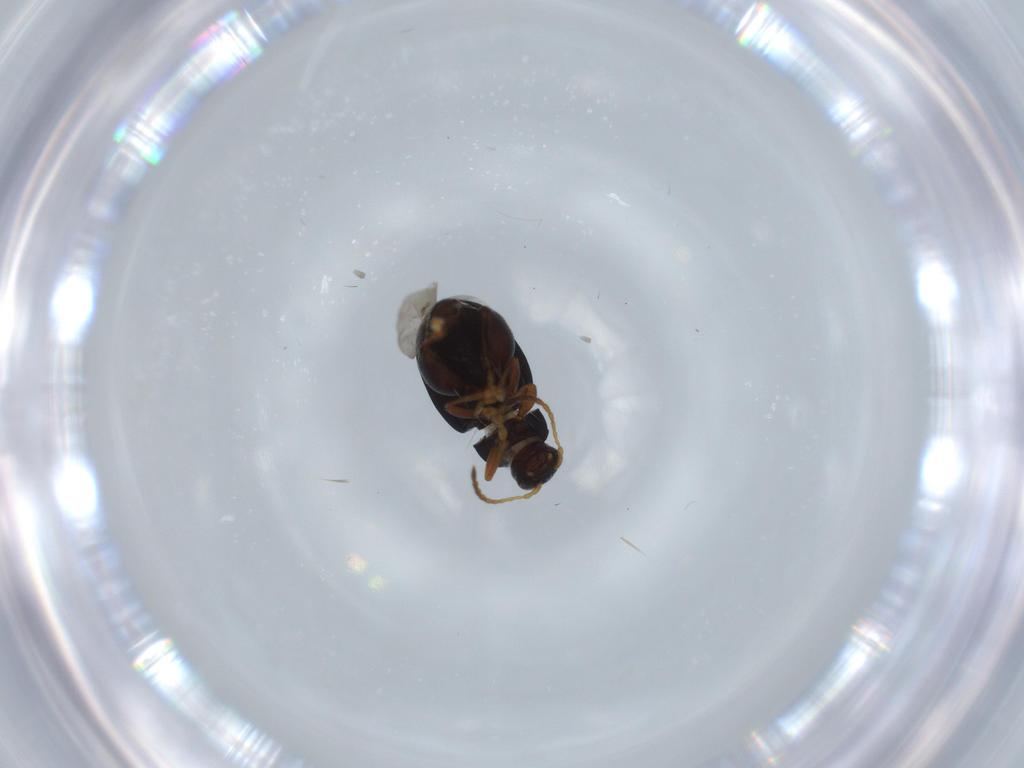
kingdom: Animalia
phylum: Arthropoda
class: Insecta
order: Coleoptera
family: Chrysomelidae
